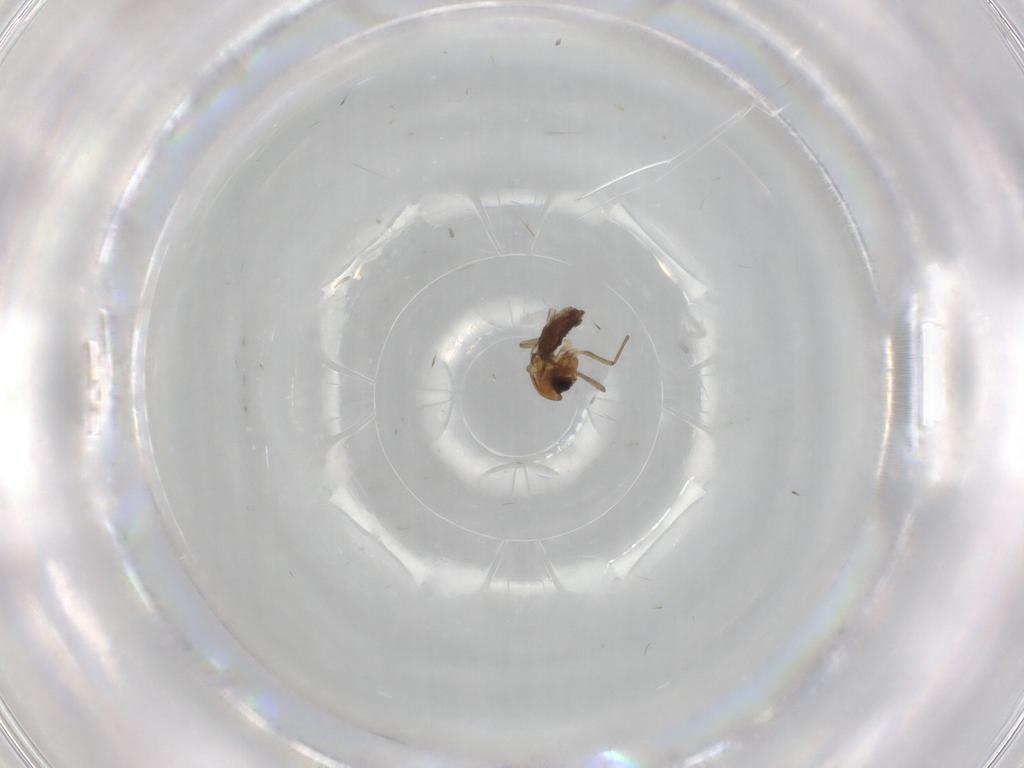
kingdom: Animalia
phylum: Arthropoda
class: Insecta
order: Diptera
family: Chironomidae
